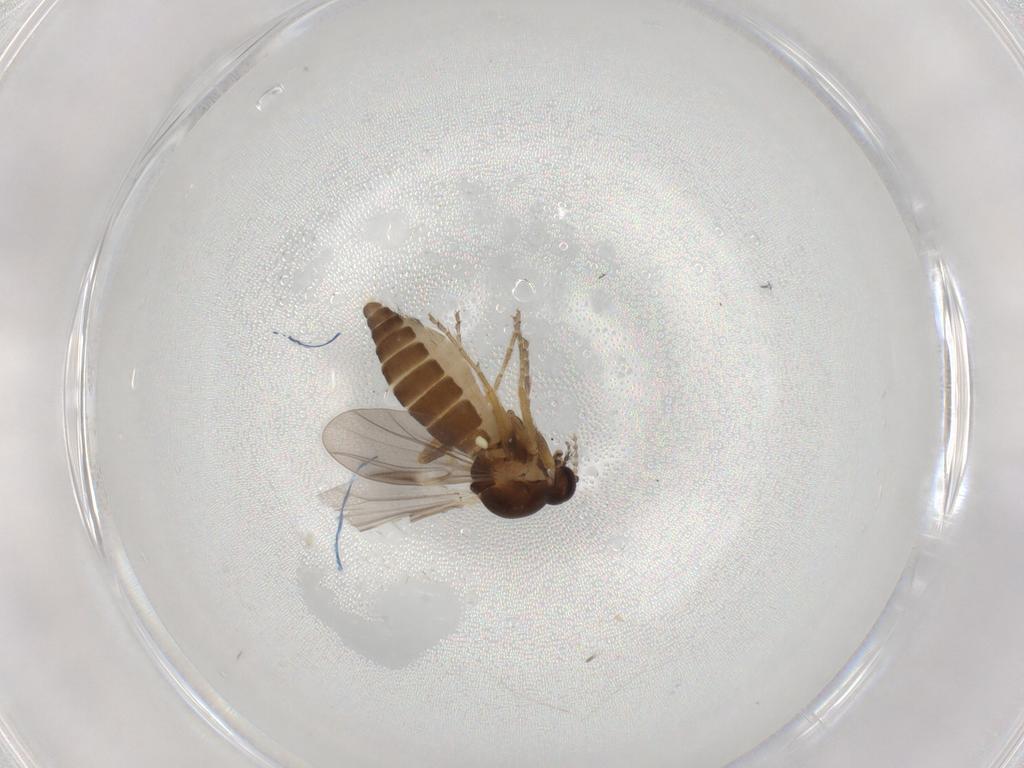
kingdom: Animalia
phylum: Arthropoda
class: Insecta
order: Diptera
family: Ceratopogonidae
